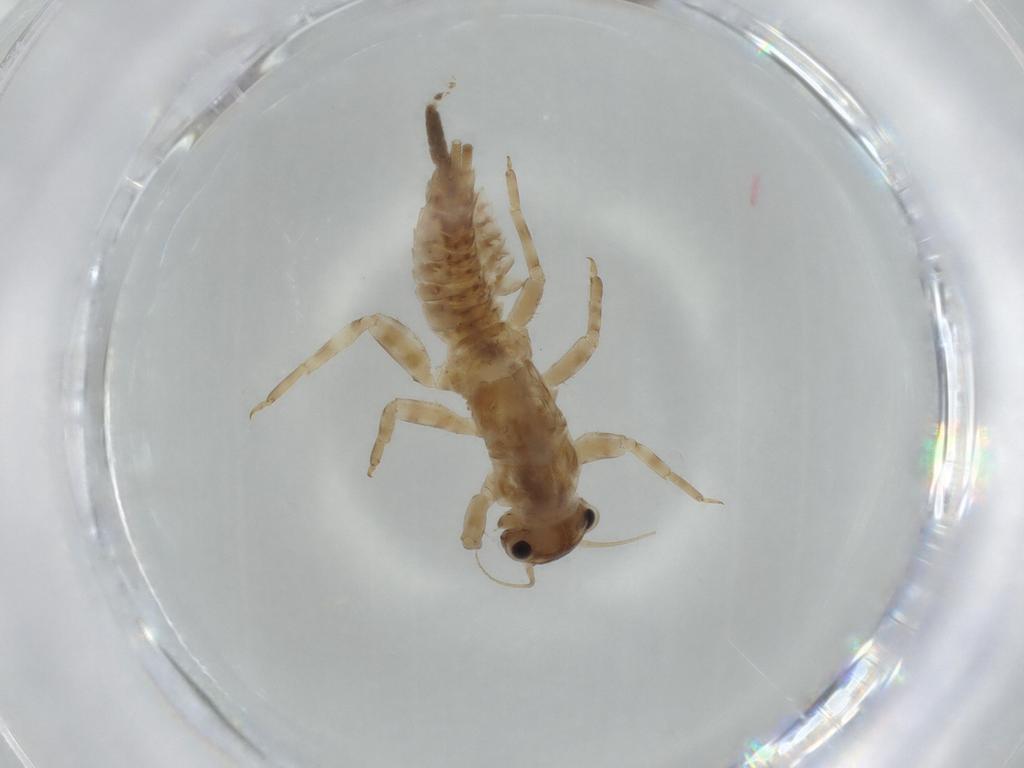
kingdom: Animalia
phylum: Arthropoda
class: Insecta
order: Ephemeroptera
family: Ephemerellidae
